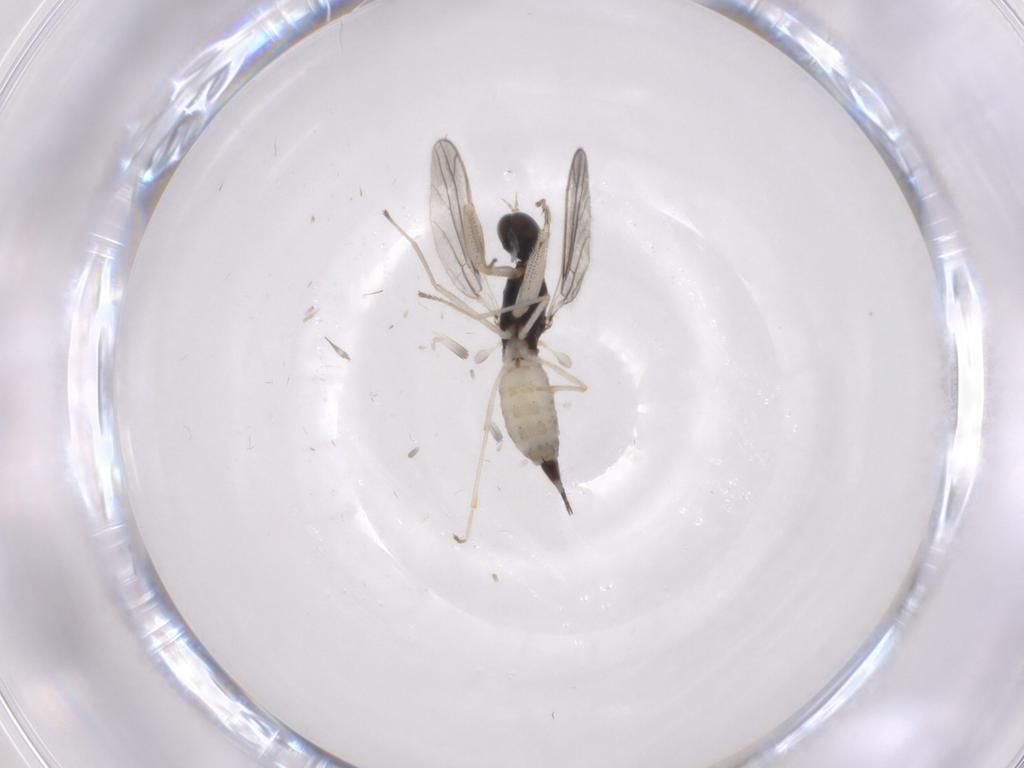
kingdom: Animalia
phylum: Arthropoda
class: Insecta
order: Diptera
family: Empididae
